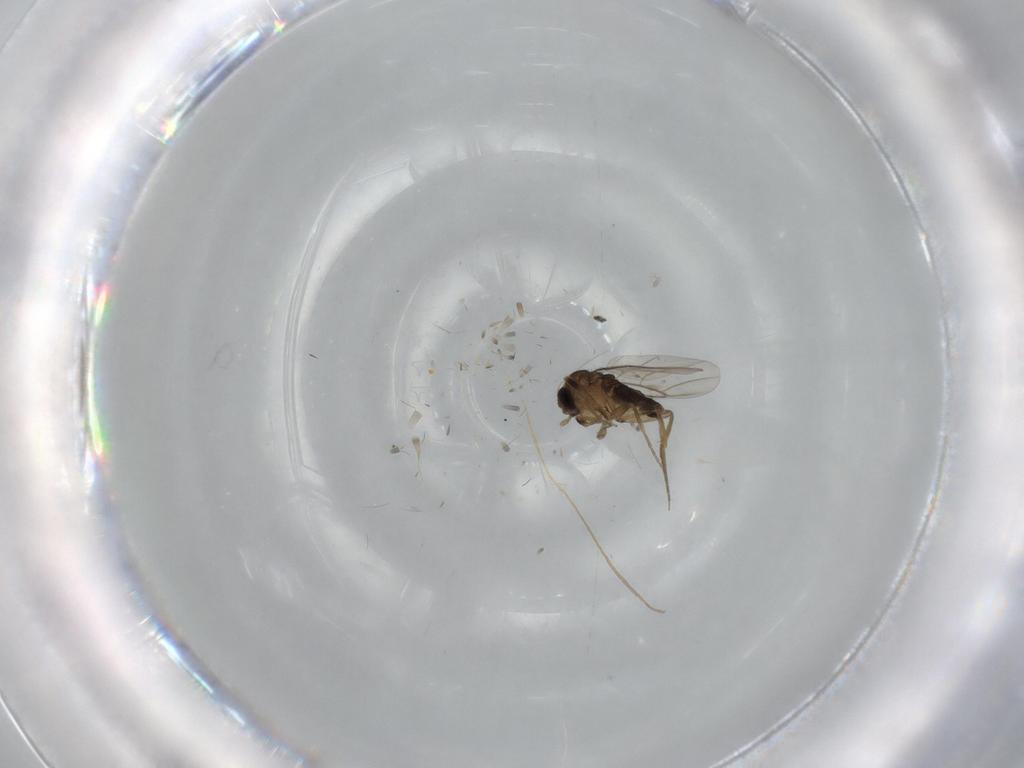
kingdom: Animalia
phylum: Arthropoda
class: Insecta
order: Diptera
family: Phoridae
